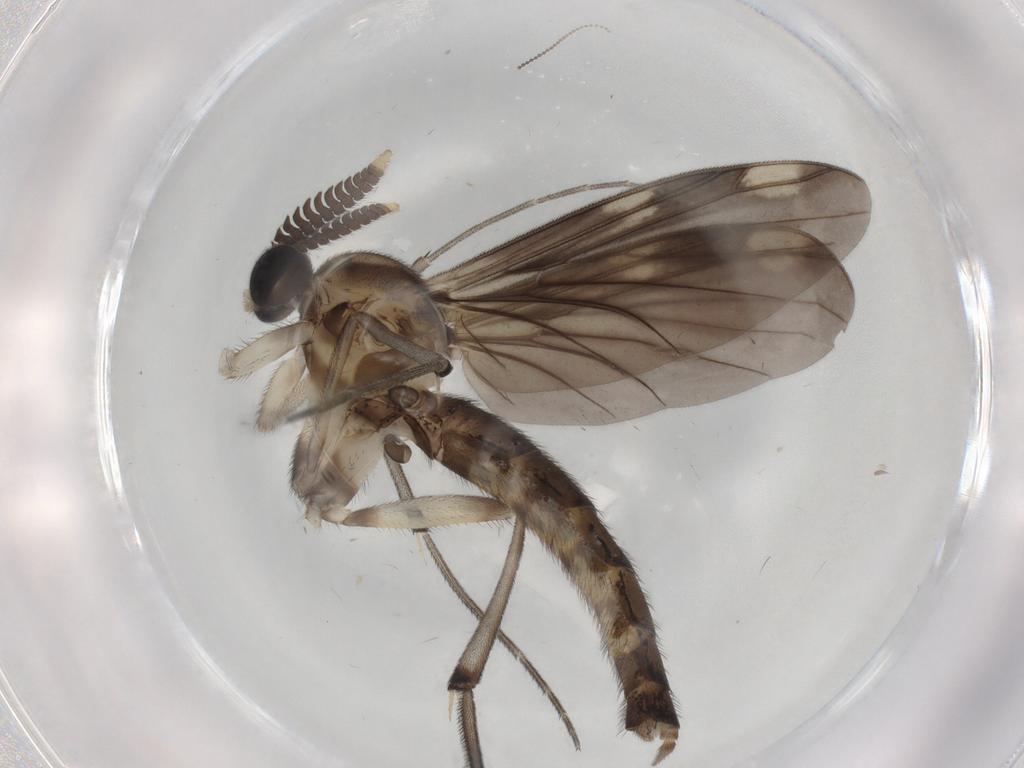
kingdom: Animalia
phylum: Arthropoda
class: Insecta
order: Diptera
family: Cecidomyiidae
